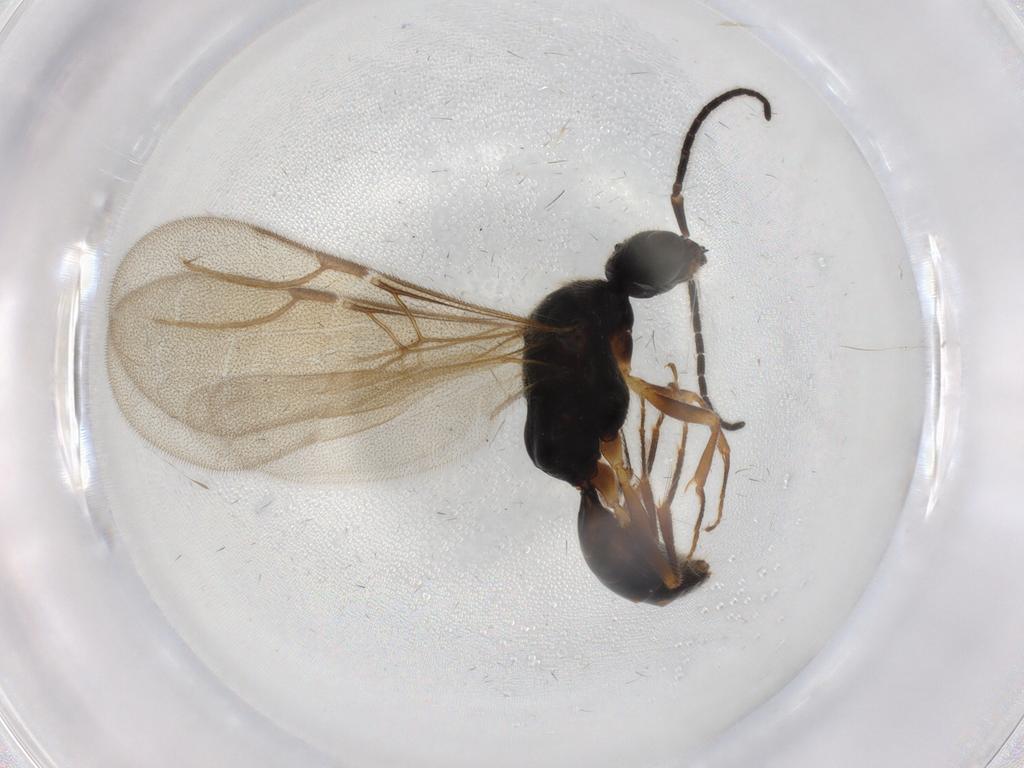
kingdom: Animalia
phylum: Arthropoda
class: Insecta
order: Hymenoptera
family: Bethylidae
